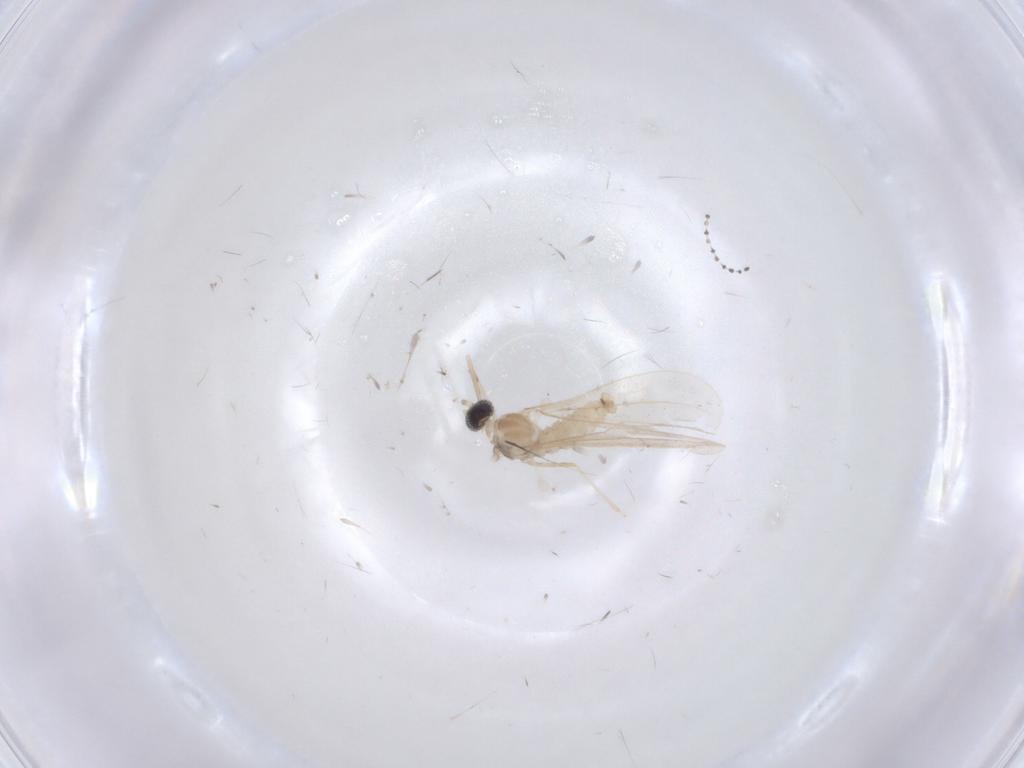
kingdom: Animalia
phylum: Arthropoda
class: Insecta
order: Diptera
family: Cecidomyiidae
